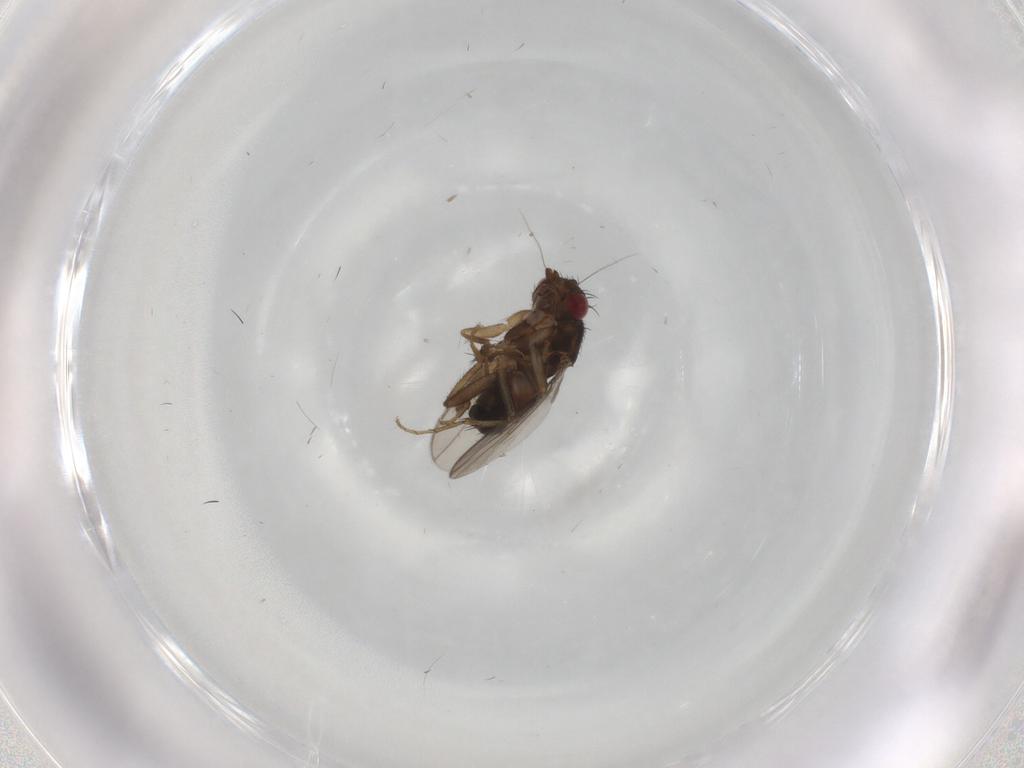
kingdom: Animalia
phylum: Arthropoda
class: Insecta
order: Diptera
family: Sphaeroceridae
